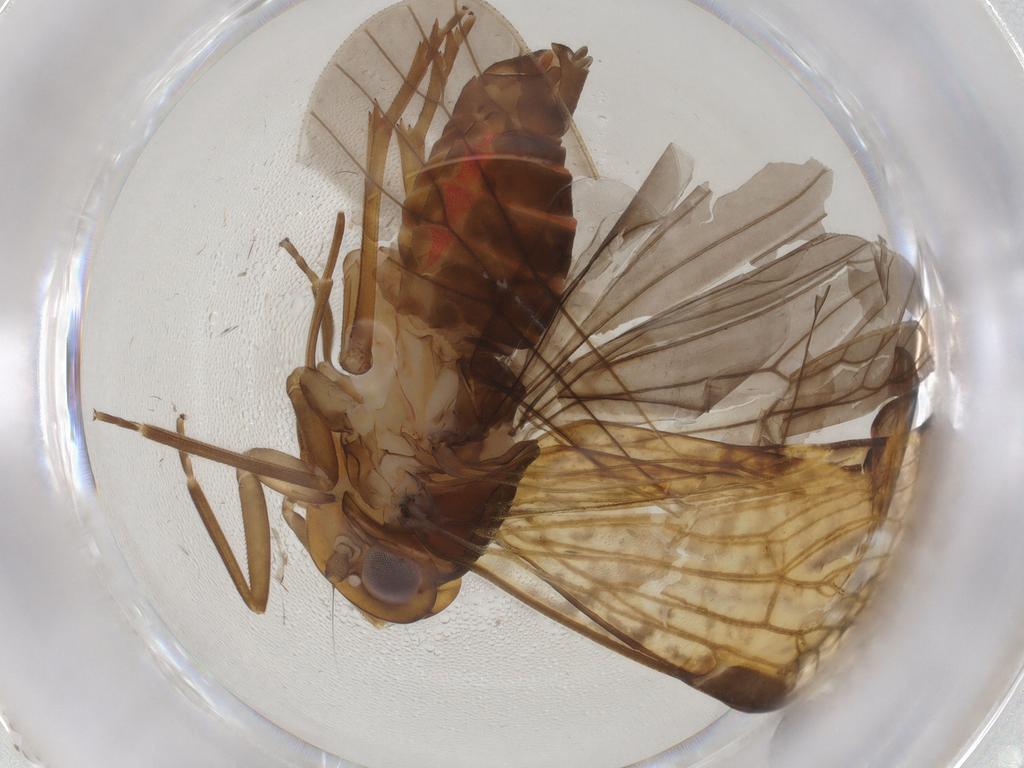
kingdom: Animalia
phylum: Arthropoda
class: Insecta
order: Hemiptera
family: Cixiidae
